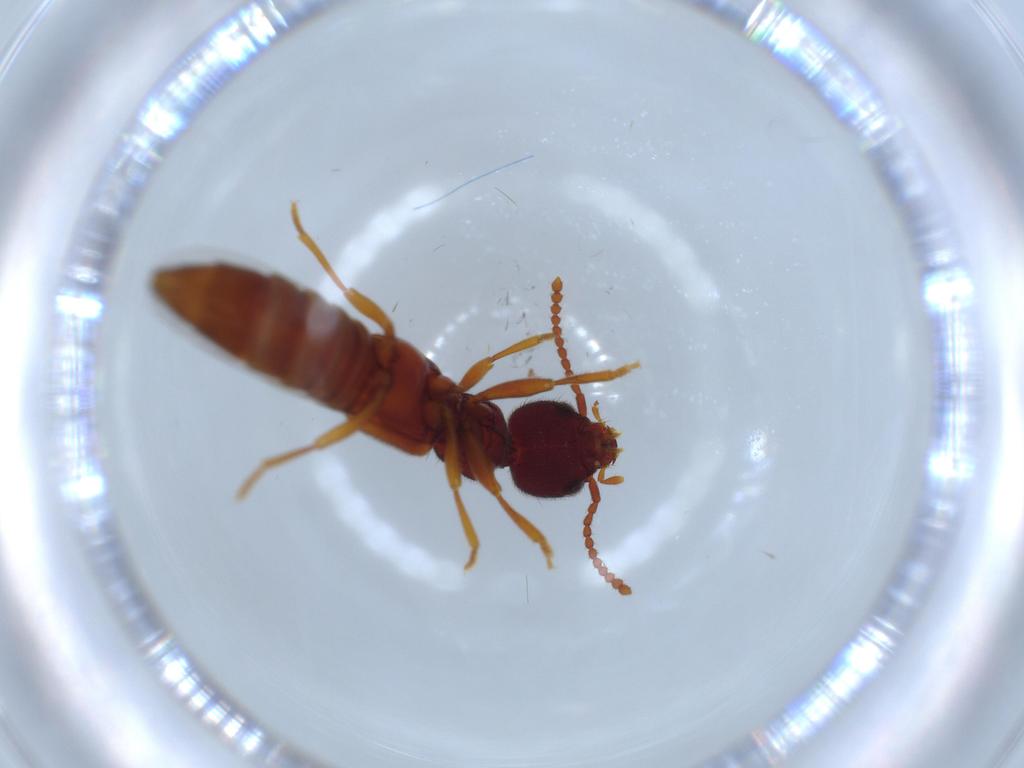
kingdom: Animalia
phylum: Arthropoda
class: Insecta
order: Coleoptera
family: Staphylinidae
